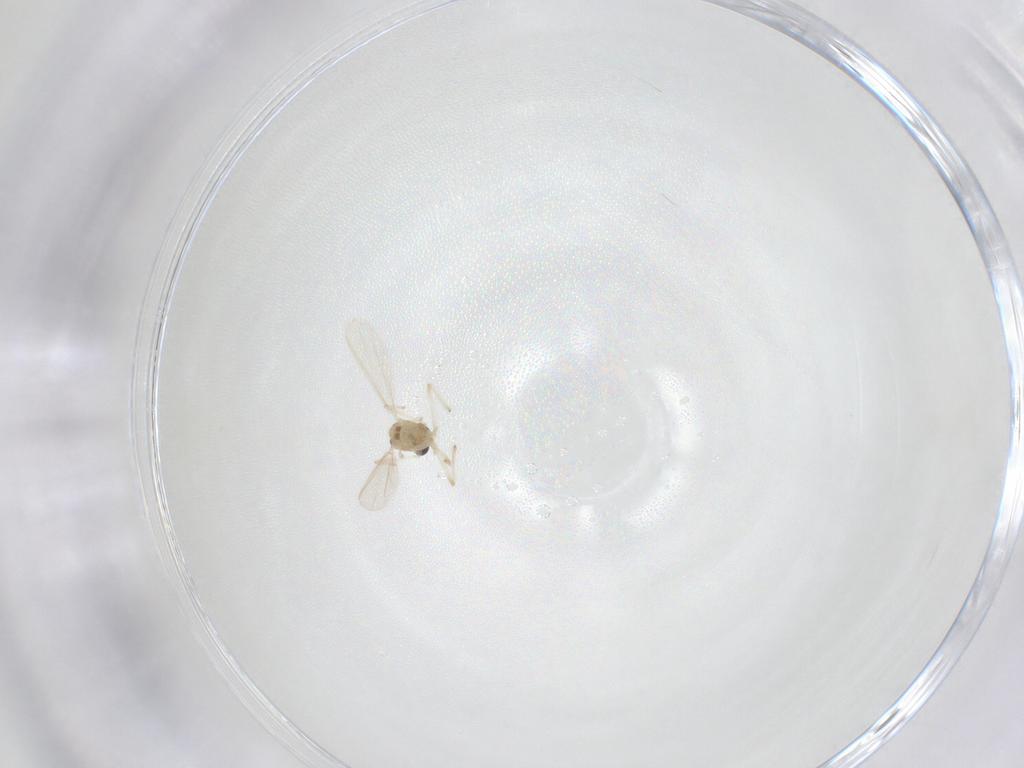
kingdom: Animalia
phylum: Arthropoda
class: Insecta
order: Diptera
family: Chironomidae
